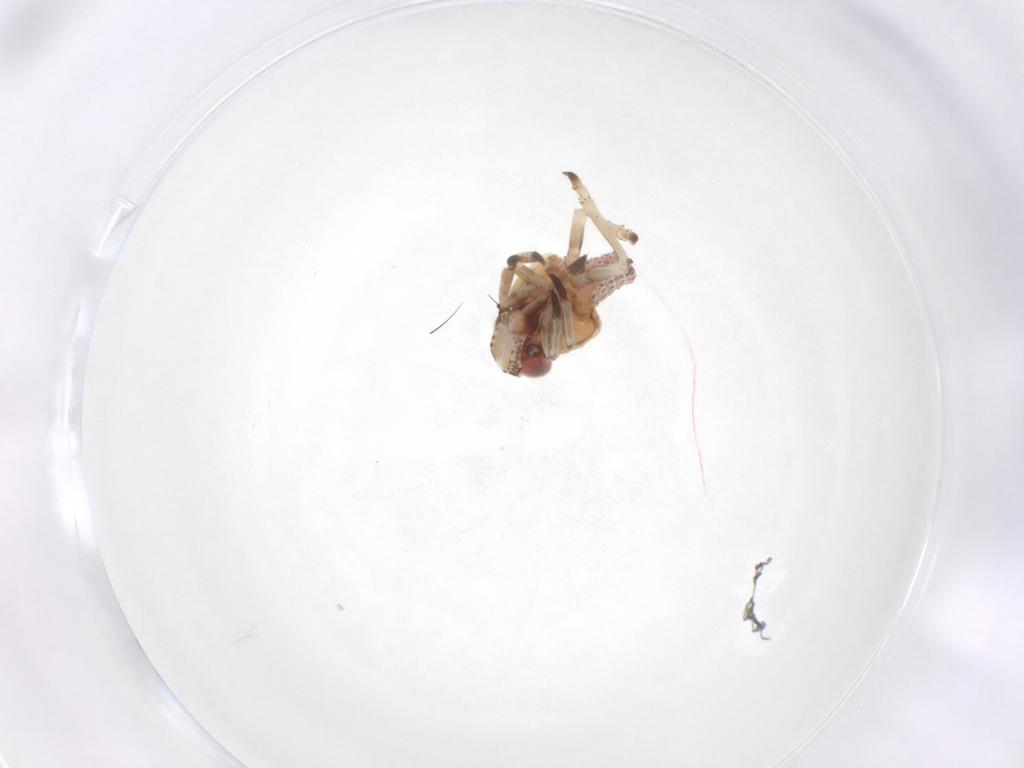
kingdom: Animalia
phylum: Arthropoda
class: Insecta
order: Hemiptera
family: Tropiduchidae
